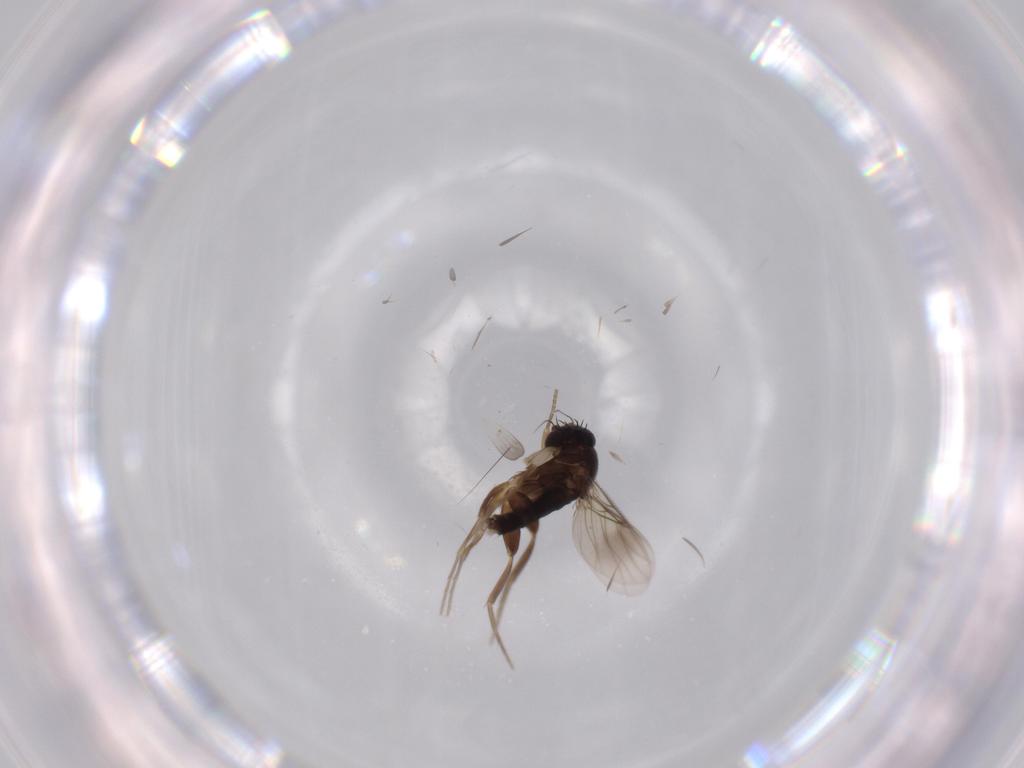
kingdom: Animalia
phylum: Arthropoda
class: Insecta
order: Diptera
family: Phoridae
